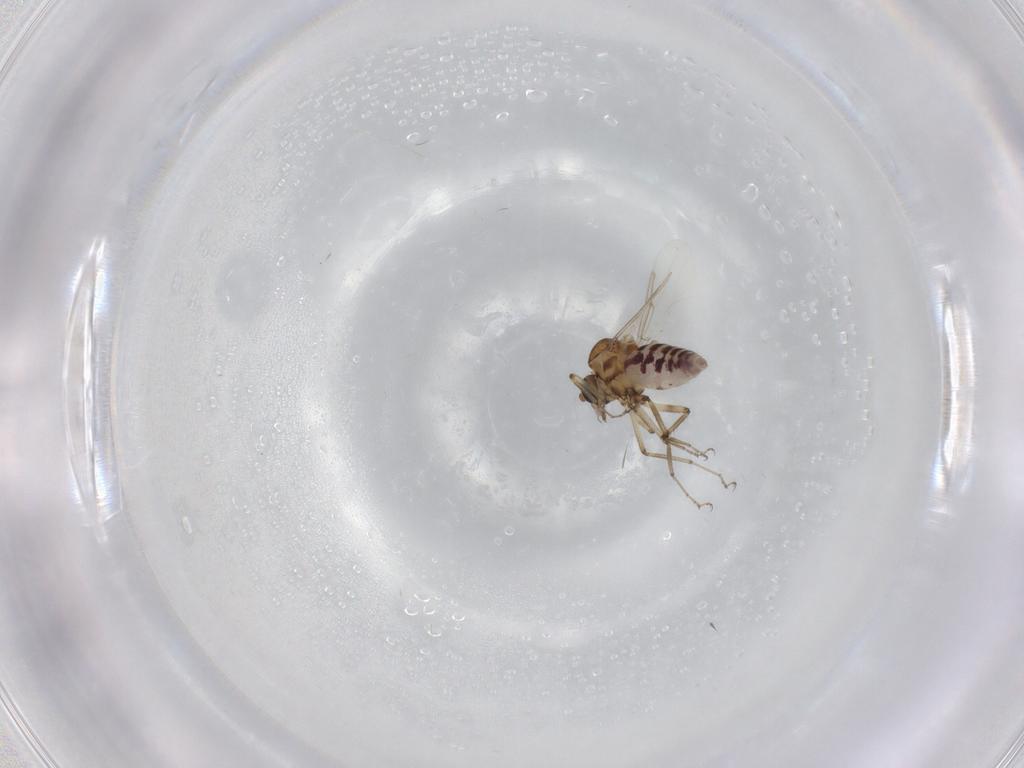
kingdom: Animalia
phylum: Arthropoda
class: Insecta
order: Diptera
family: Ceratopogonidae
